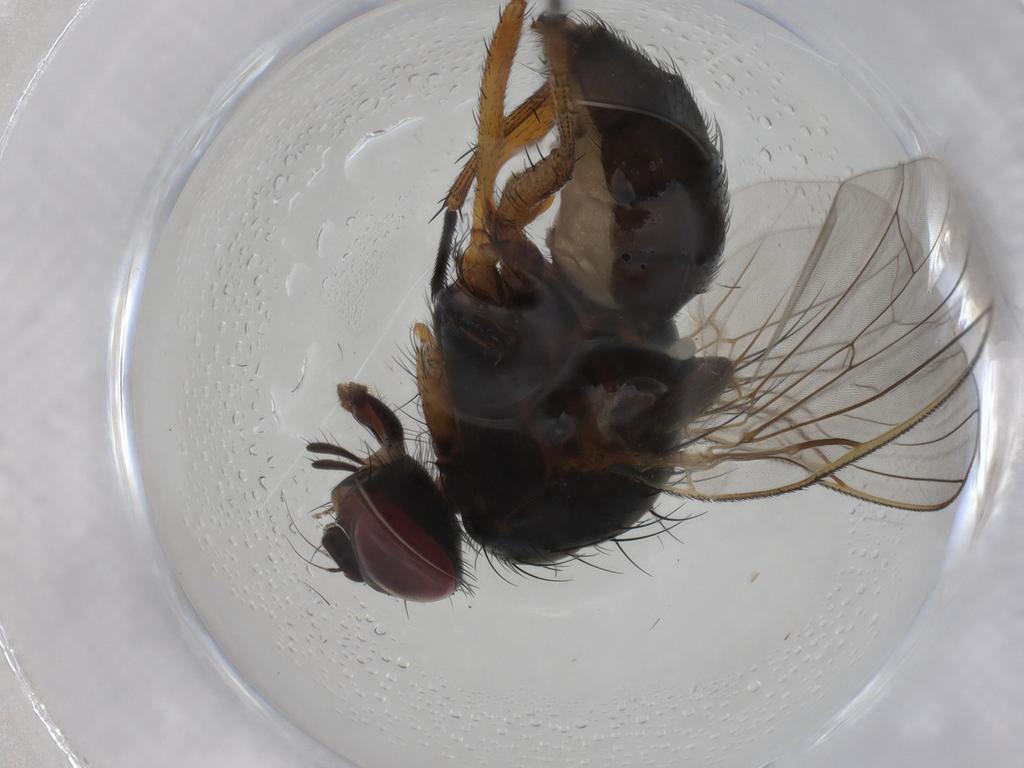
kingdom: Animalia
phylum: Arthropoda
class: Insecta
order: Diptera
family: Anthomyiidae
